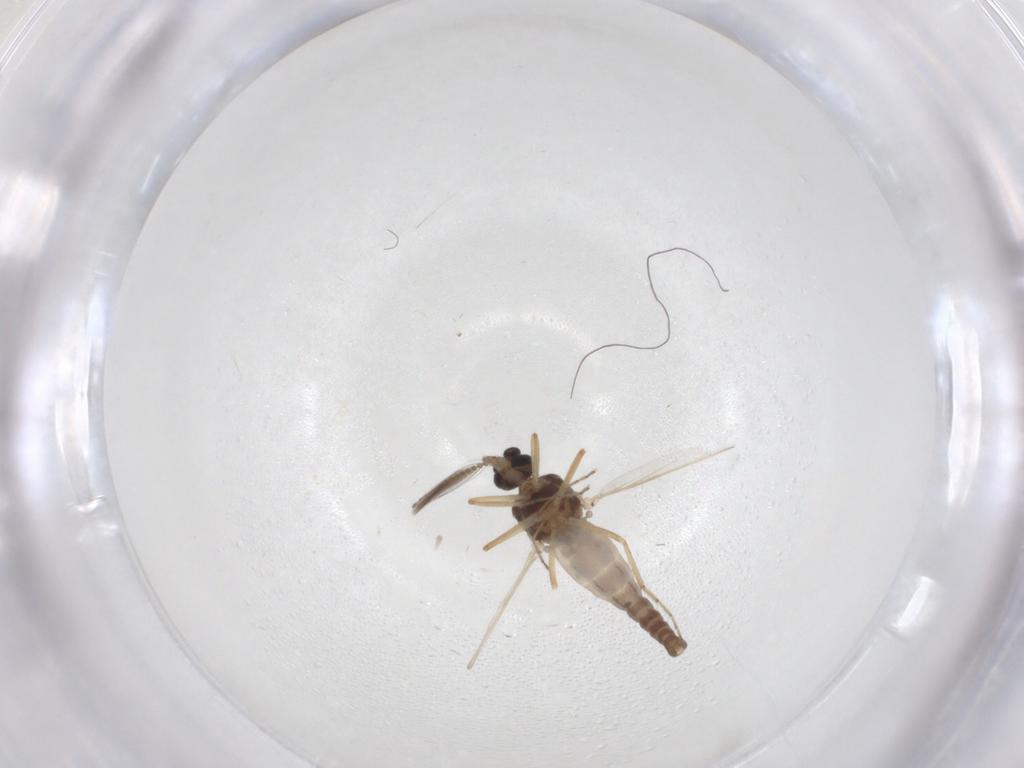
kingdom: Animalia
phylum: Arthropoda
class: Insecta
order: Diptera
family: Ceratopogonidae
